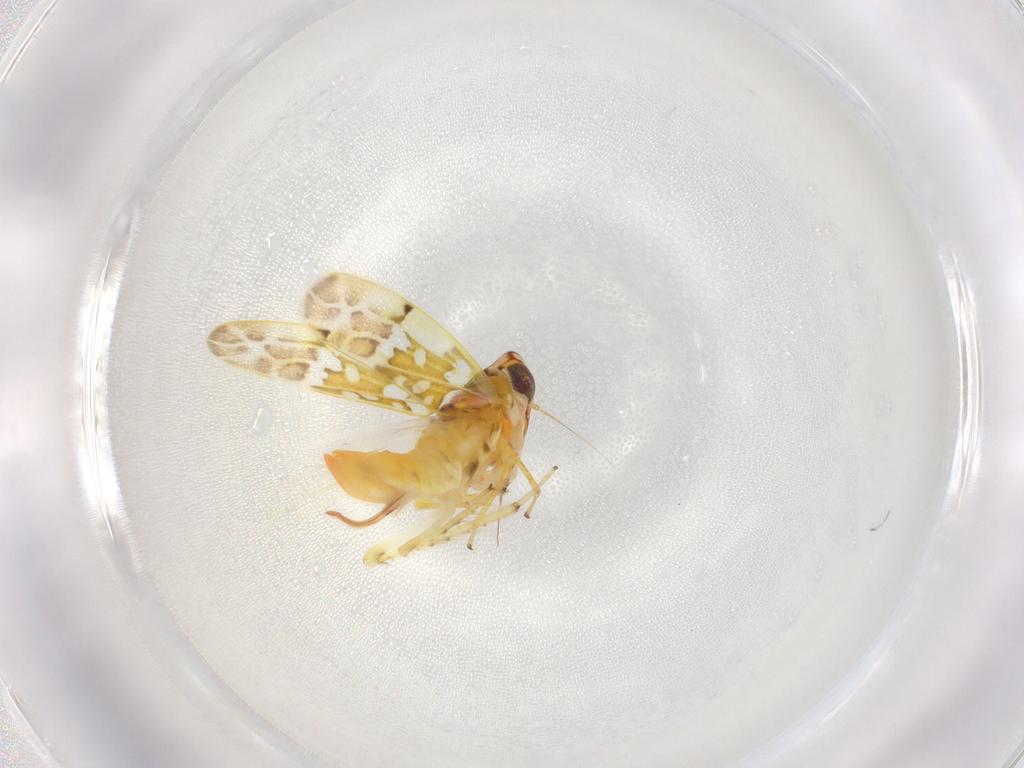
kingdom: Animalia
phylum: Arthropoda
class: Insecta
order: Hemiptera
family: Cicadellidae
